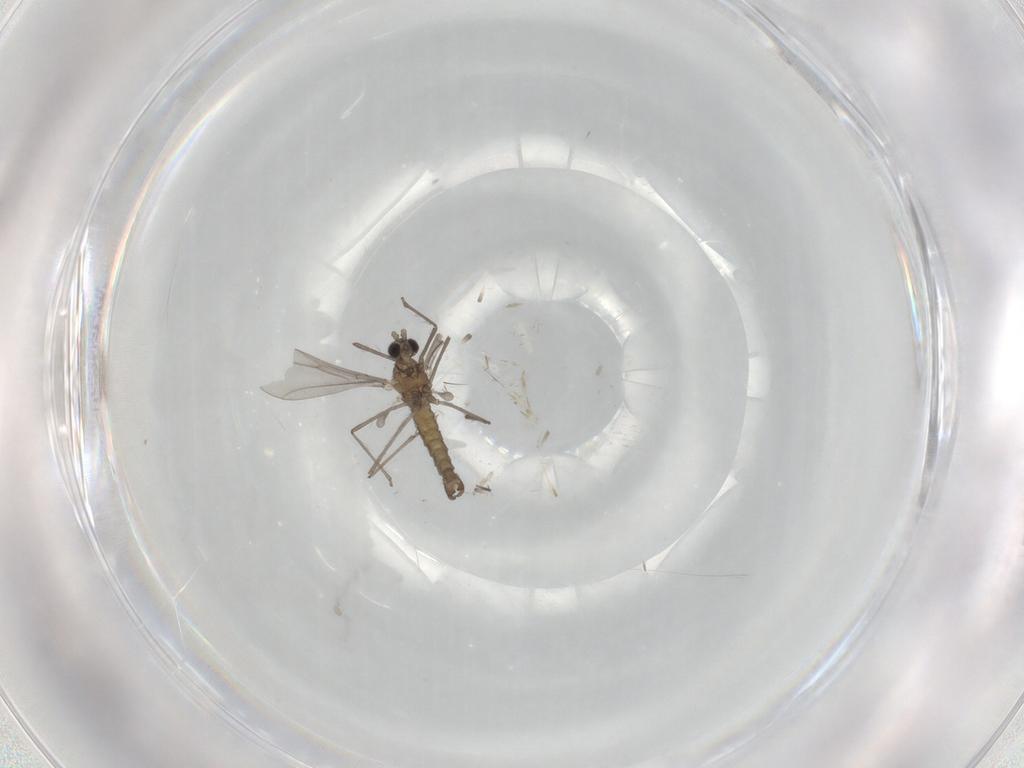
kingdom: Animalia
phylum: Arthropoda
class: Insecta
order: Diptera
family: Cecidomyiidae
